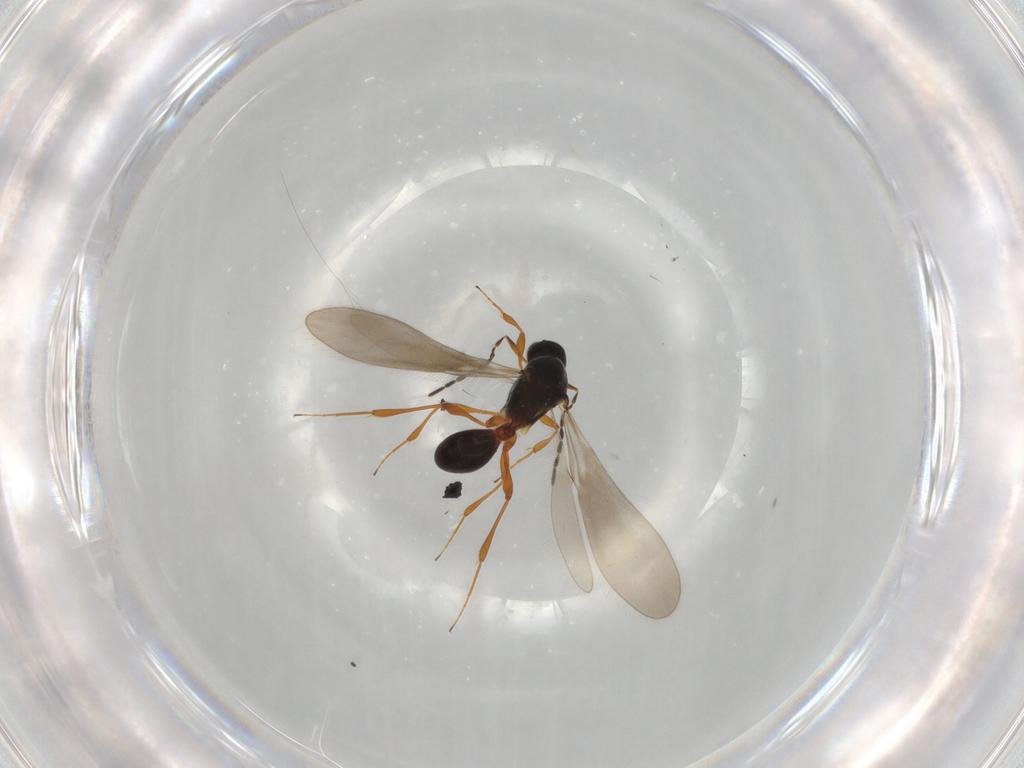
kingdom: Animalia
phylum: Arthropoda
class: Insecta
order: Hymenoptera
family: Platygastridae
